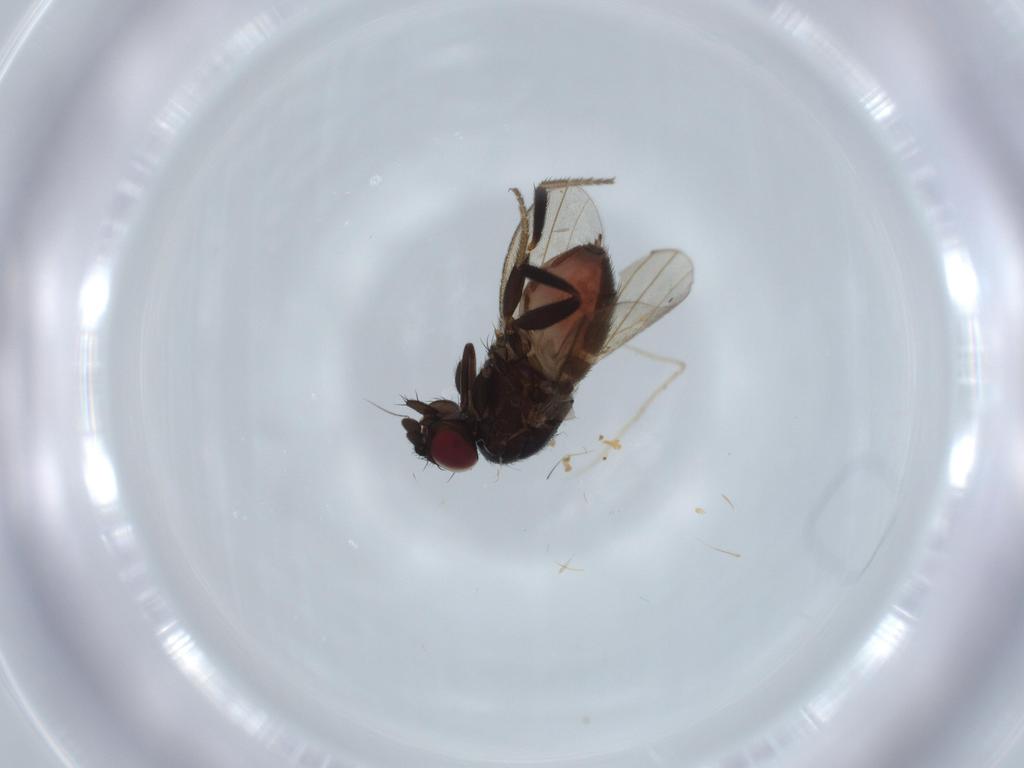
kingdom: Animalia
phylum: Arthropoda
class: Insecta
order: Diptera
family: Milichiidae
